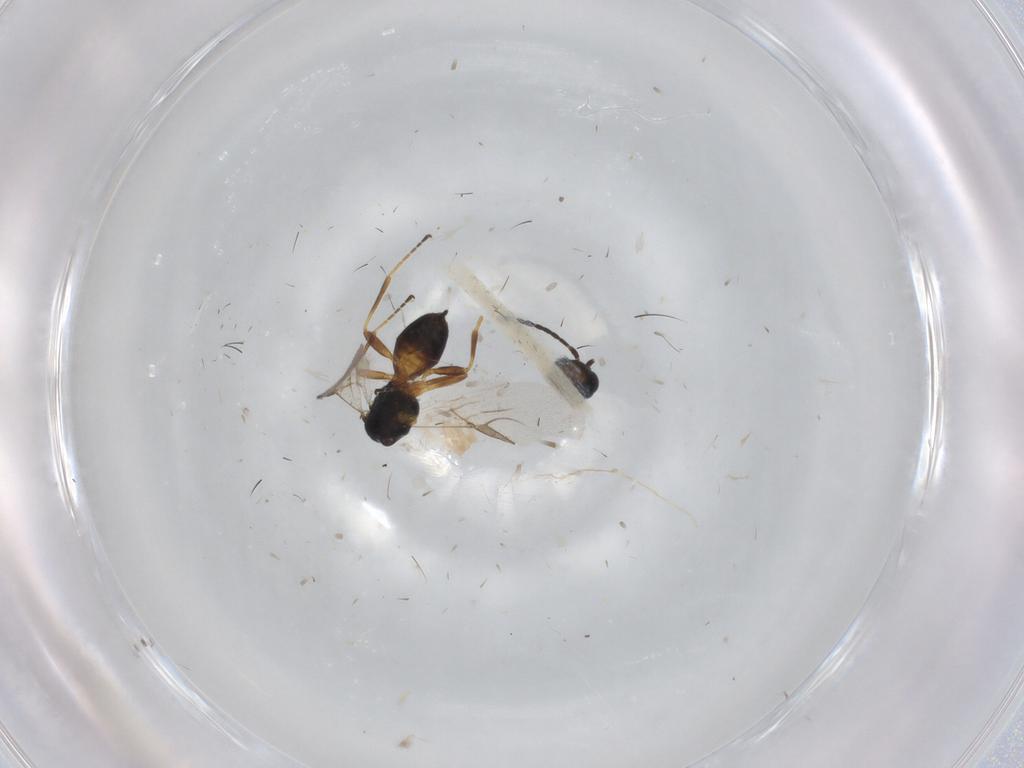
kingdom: Animalia
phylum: Arthropoda
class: Insecta
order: Hymenoptera
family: Braconidae
